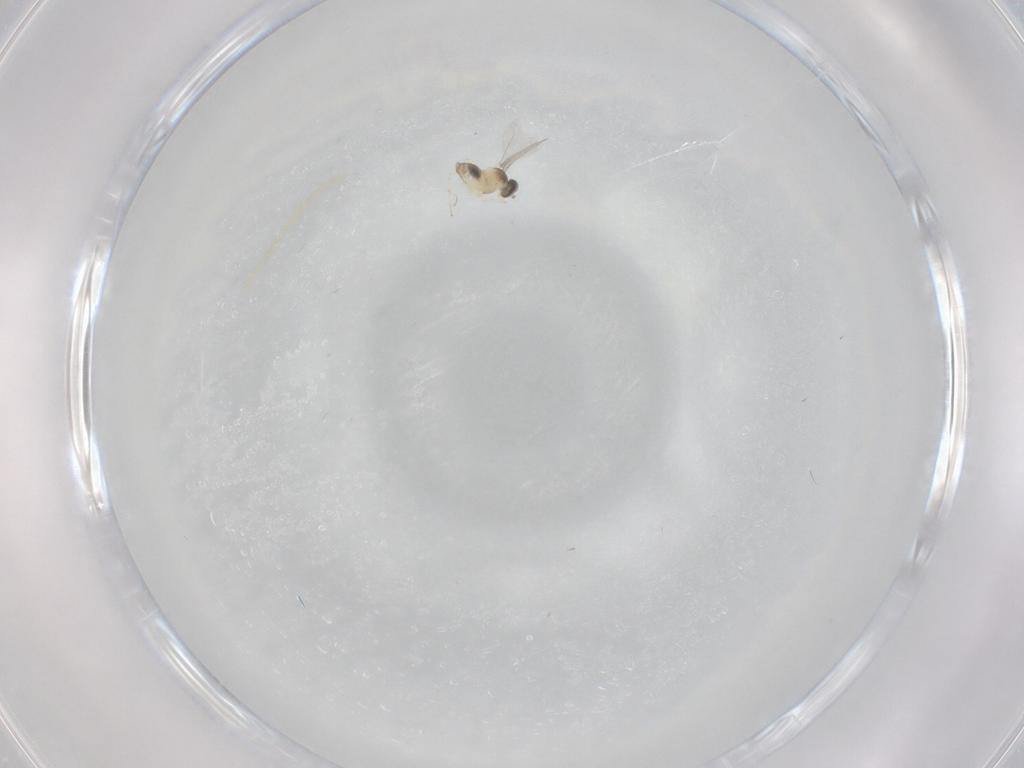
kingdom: Animalia
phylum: Arthropoda
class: Insecta
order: Diptera
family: Cecidomyiidae
